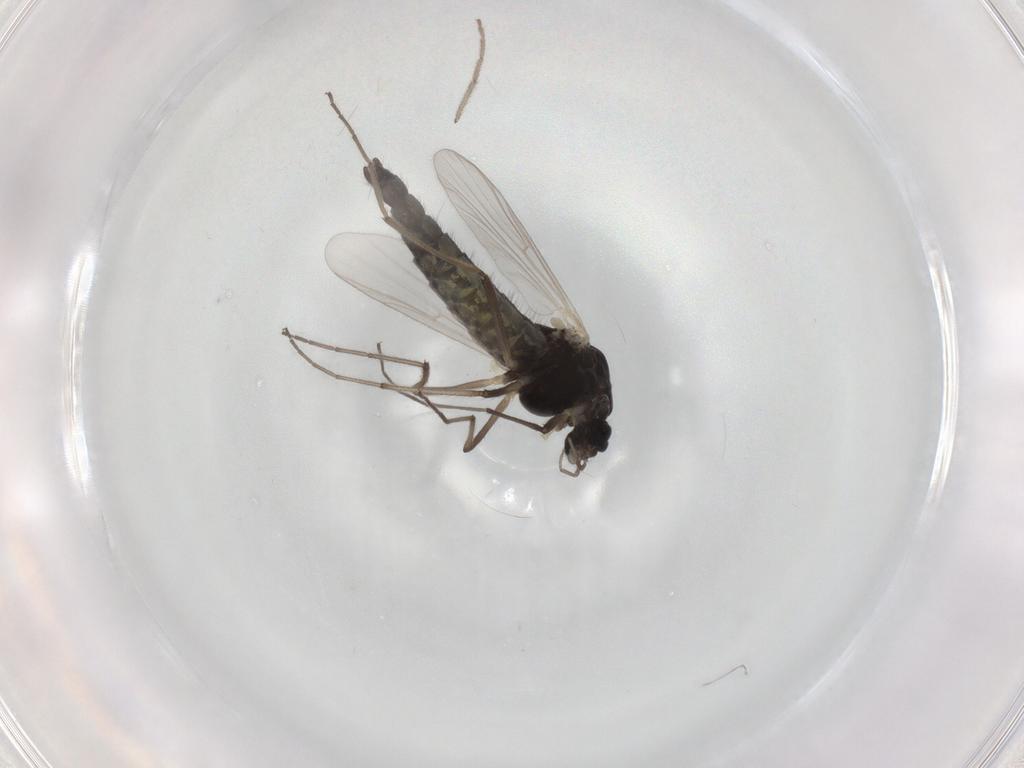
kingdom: Animalia
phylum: Arthropoda
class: Insecta
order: Diptera
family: Sphaeroceridae
